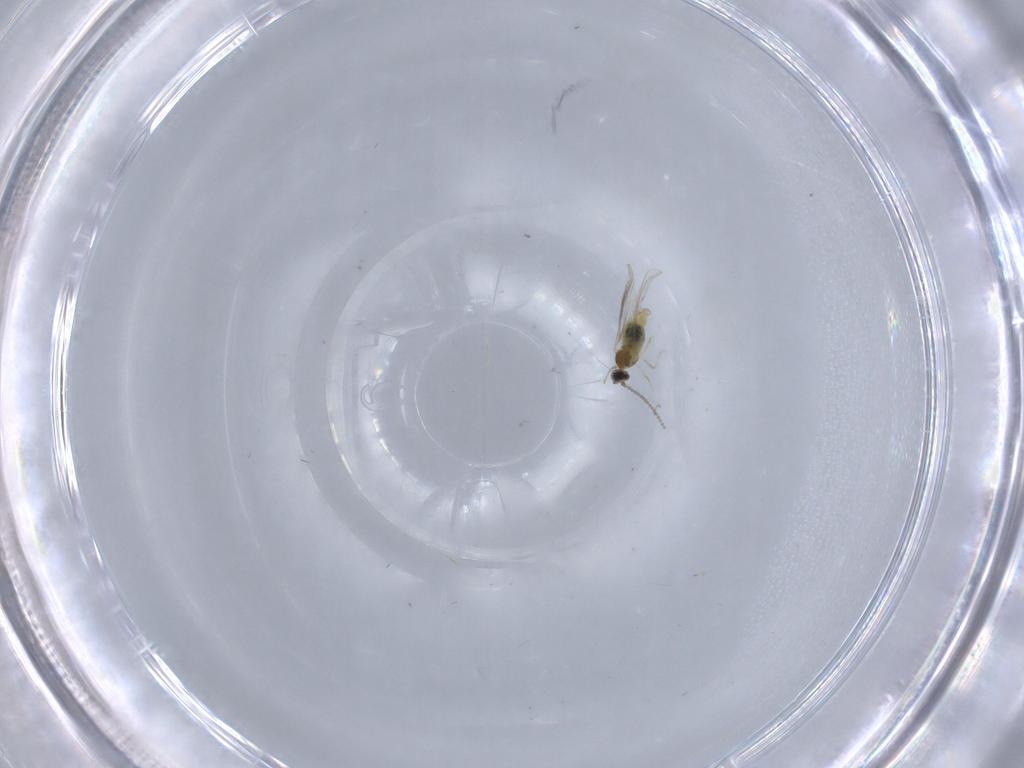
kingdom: Animalia
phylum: Arthropoda
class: Insecta
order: Diptera
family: Cecidomyiidae
